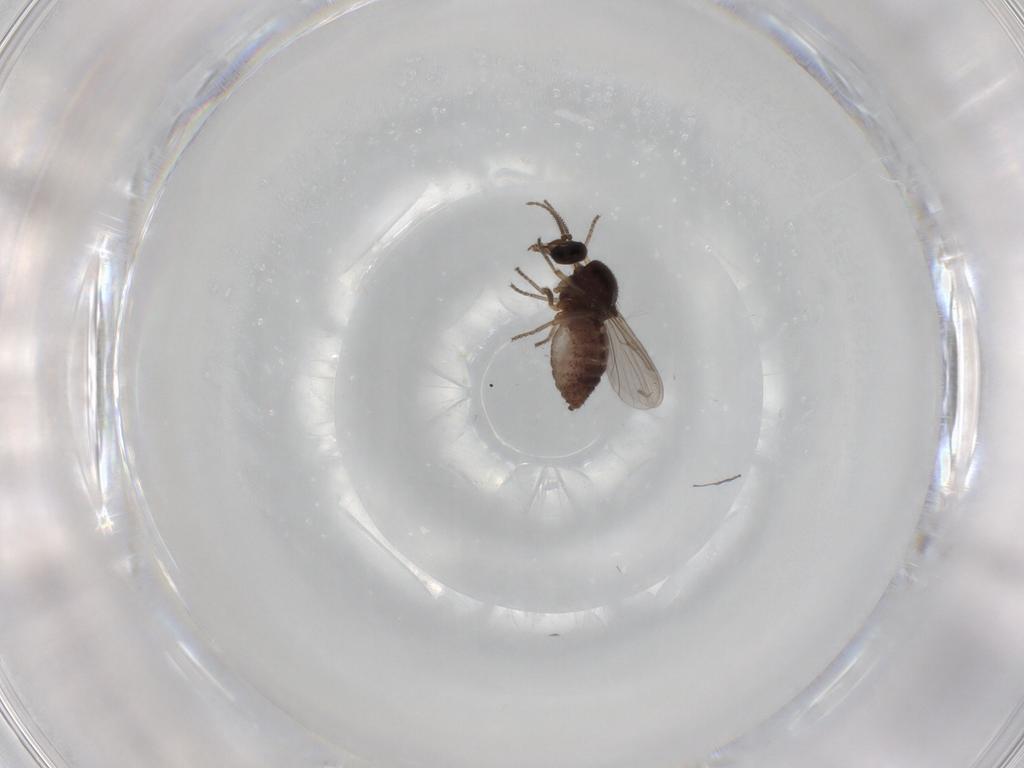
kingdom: Animalia
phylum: Arthropoda
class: Insecta
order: Diptera
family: Ceratopogonidae
